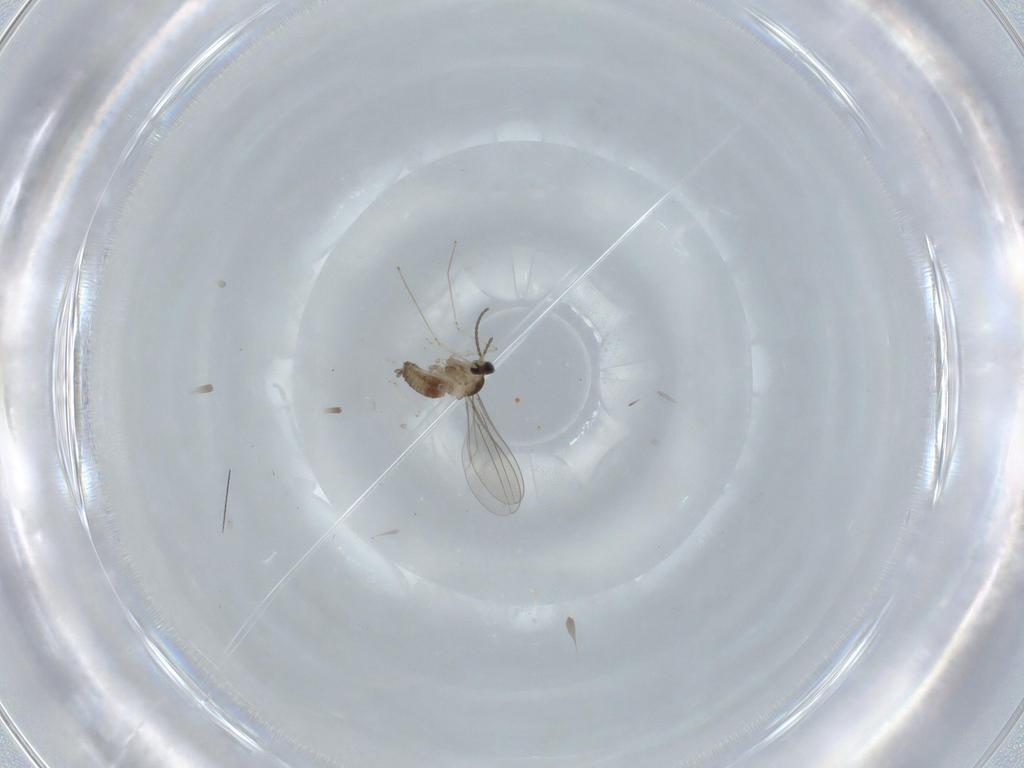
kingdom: Animalia
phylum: Arthropoda
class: Insecta
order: Diptera
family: Cecidomyiidae
